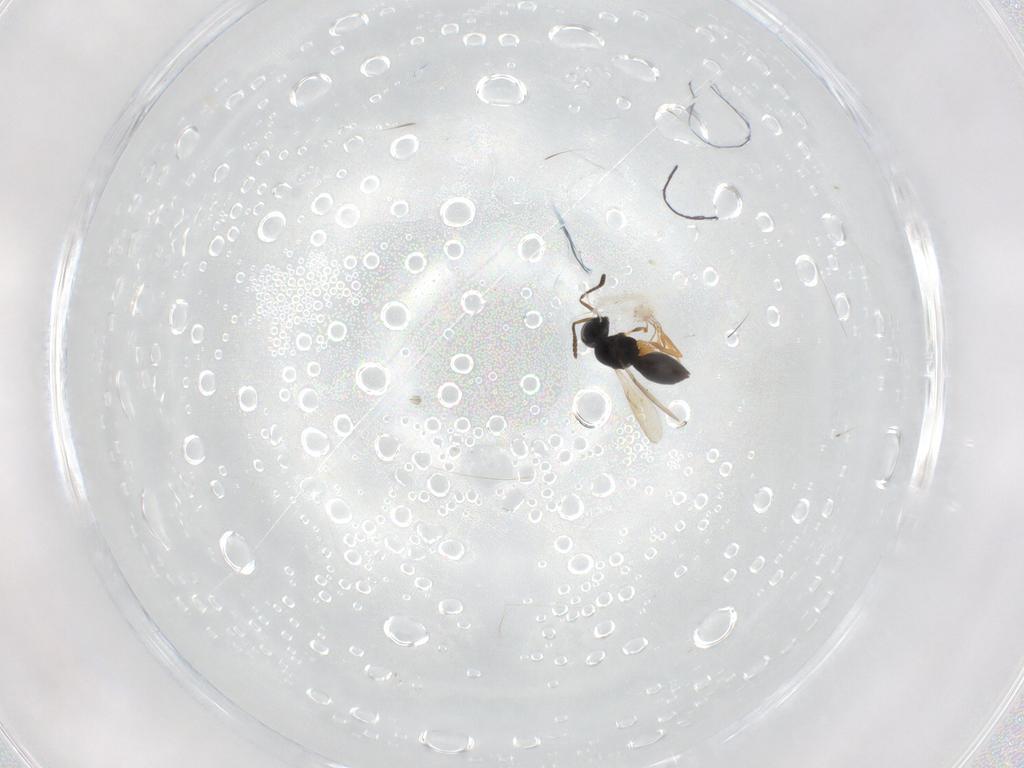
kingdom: Animalia
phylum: Arthropoda
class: Insecta
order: Hymenoptera
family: Scelionidae
